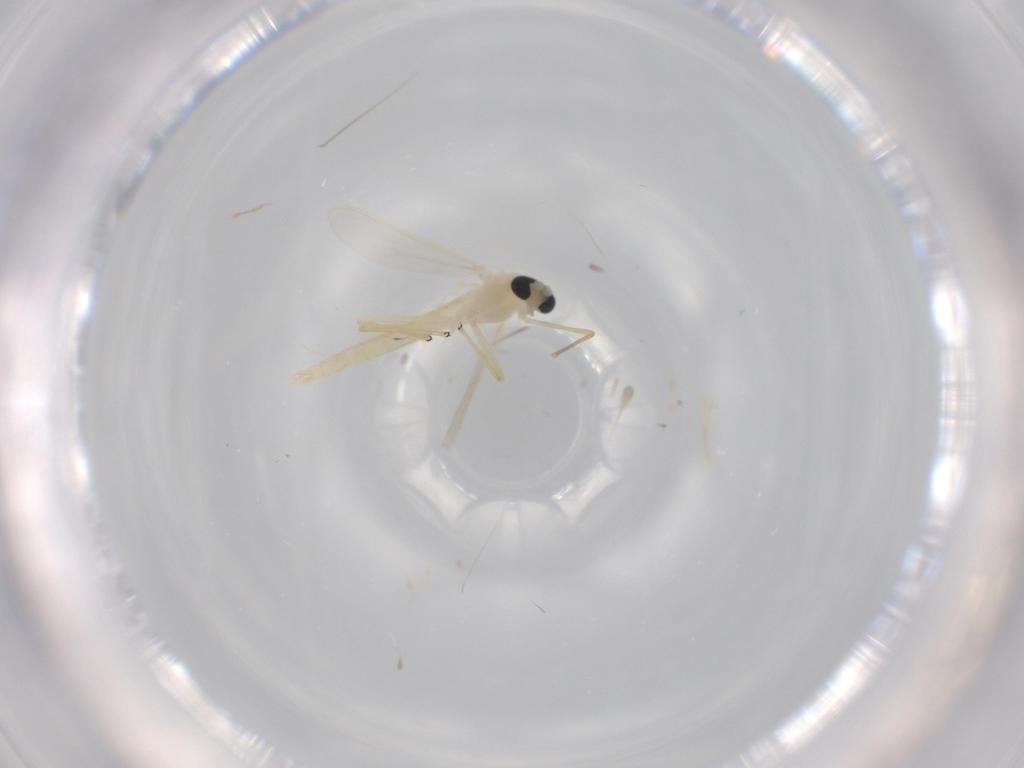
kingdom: Animalia
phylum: Arthropoda
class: Insecta
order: Diptera
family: Chironomidae
